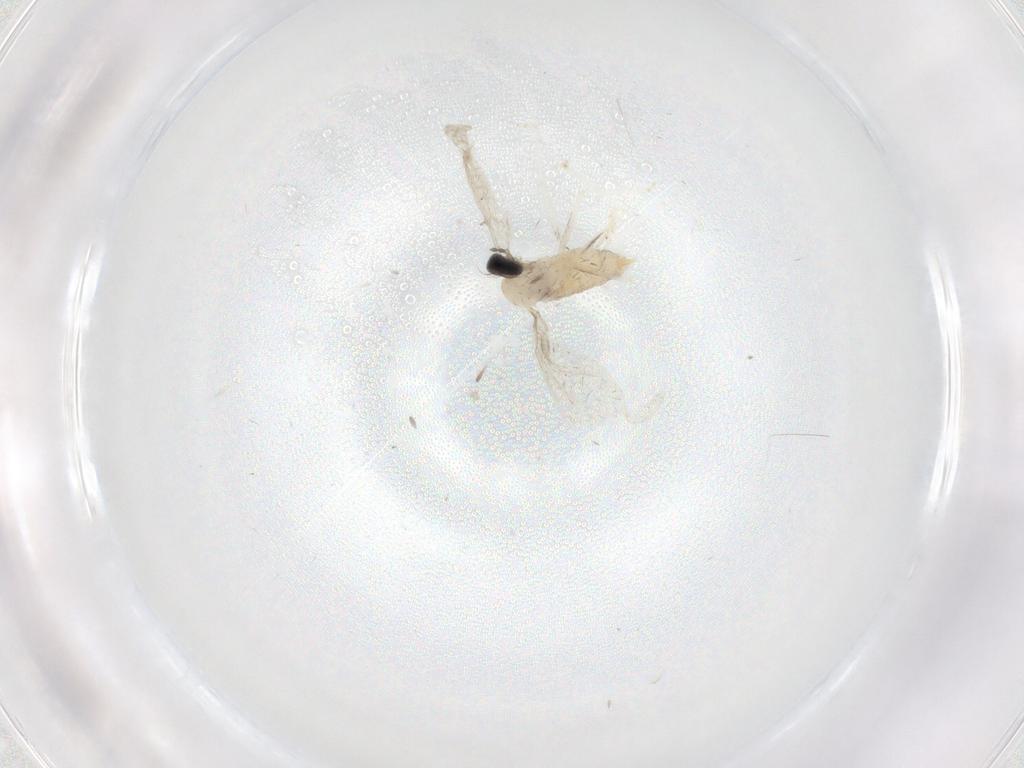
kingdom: Animalia
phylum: Arthropoda
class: Insecta
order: Diptera
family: Cecidomyiidae
